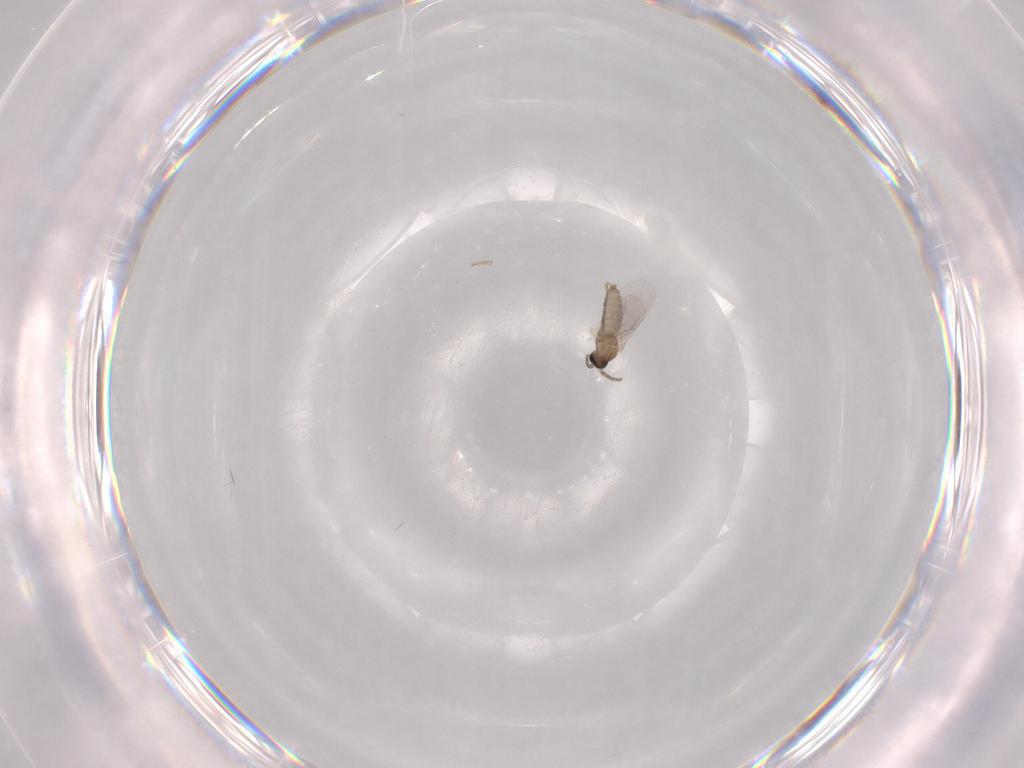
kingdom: Animalia
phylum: Arthropoda
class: Insecta
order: Diptera
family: Cecidomyiidae
